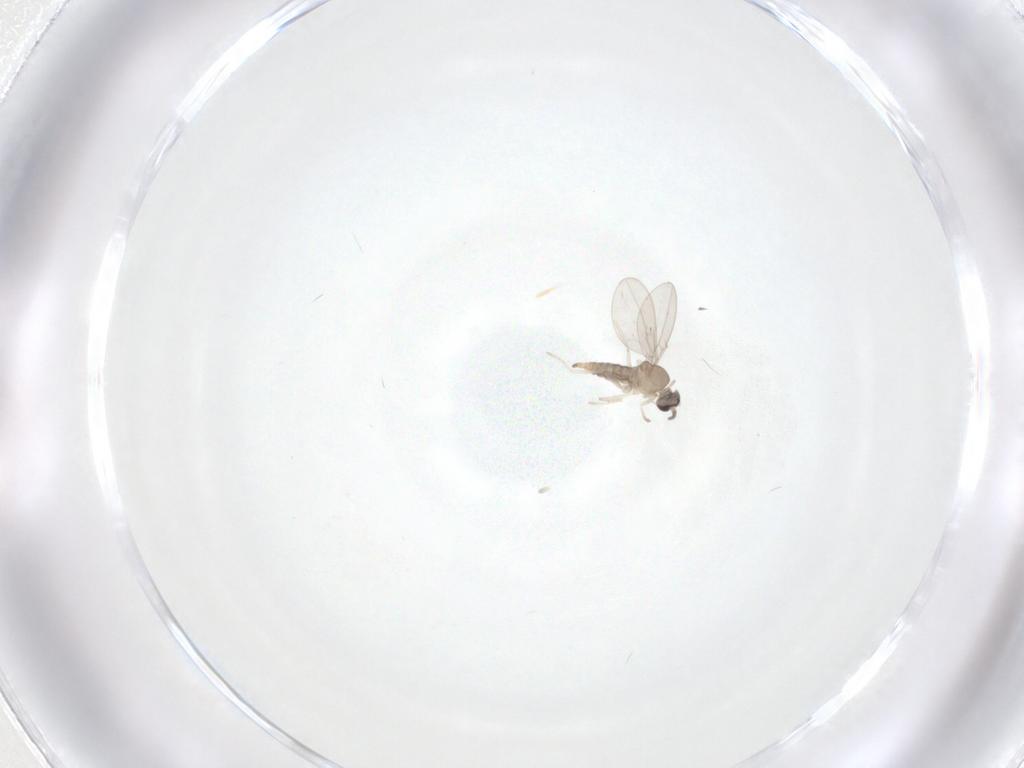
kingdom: Animalia
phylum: Arthropoda
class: Insecta
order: Diptera
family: Cecidomyiidae
